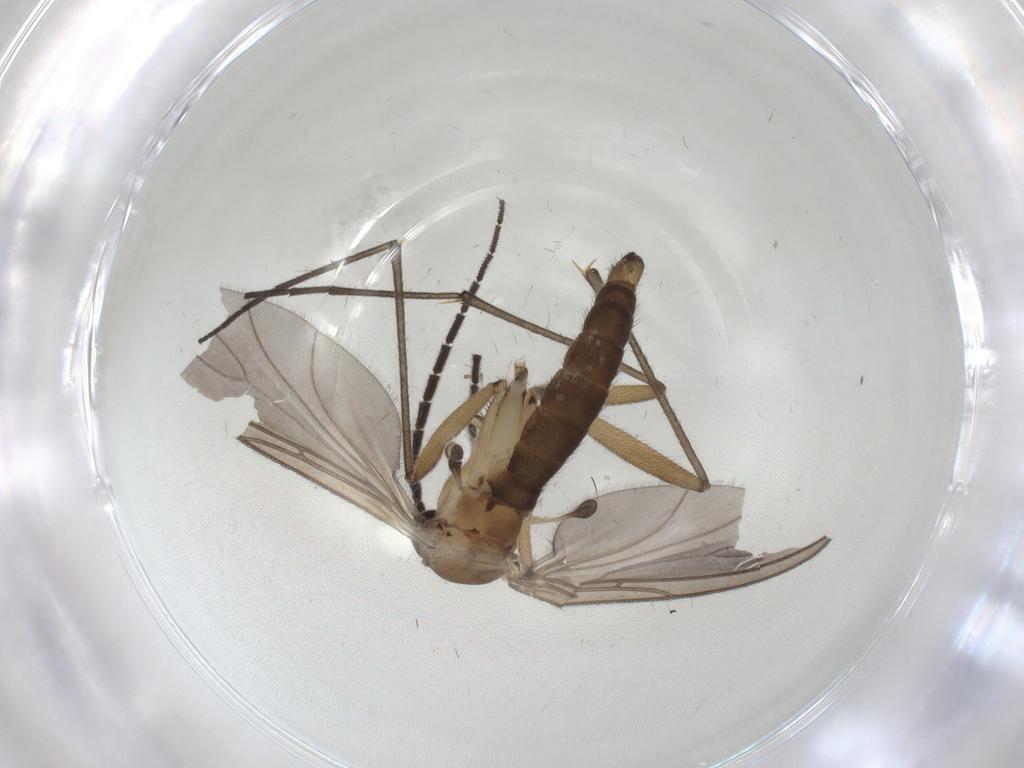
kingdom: Animalia
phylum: Arthropoda
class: Insecta
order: Diptera
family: Sciaridae
